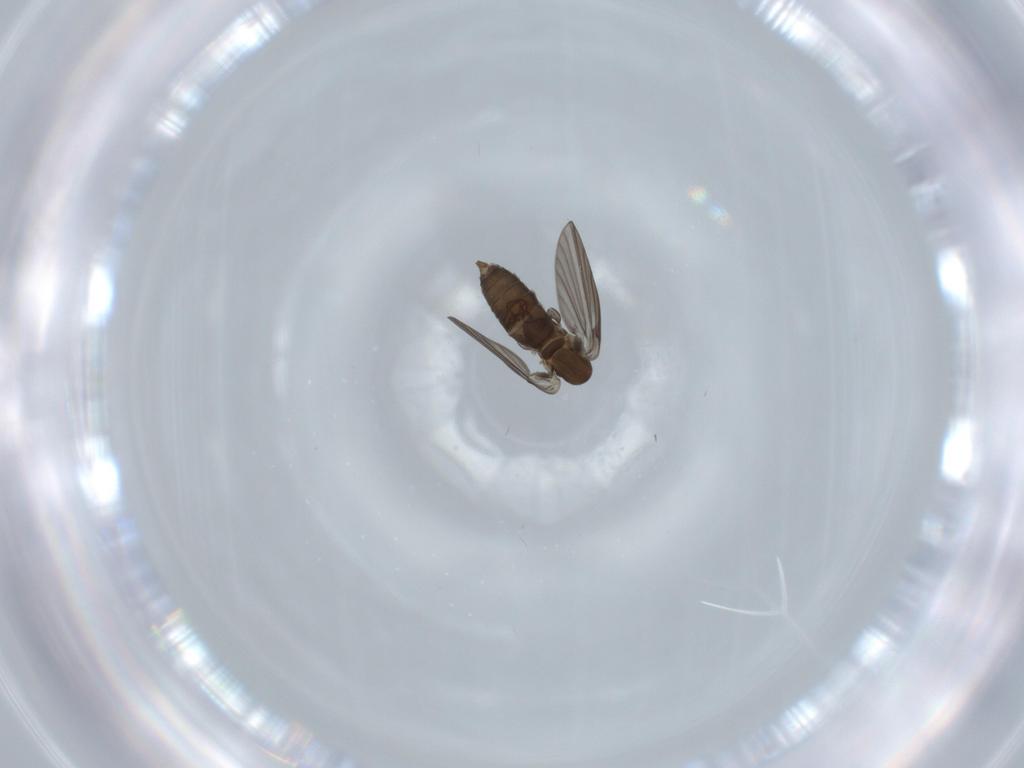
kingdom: Animalia
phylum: Arthropoda
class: Insecta
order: Diptera
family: Psychodidae
